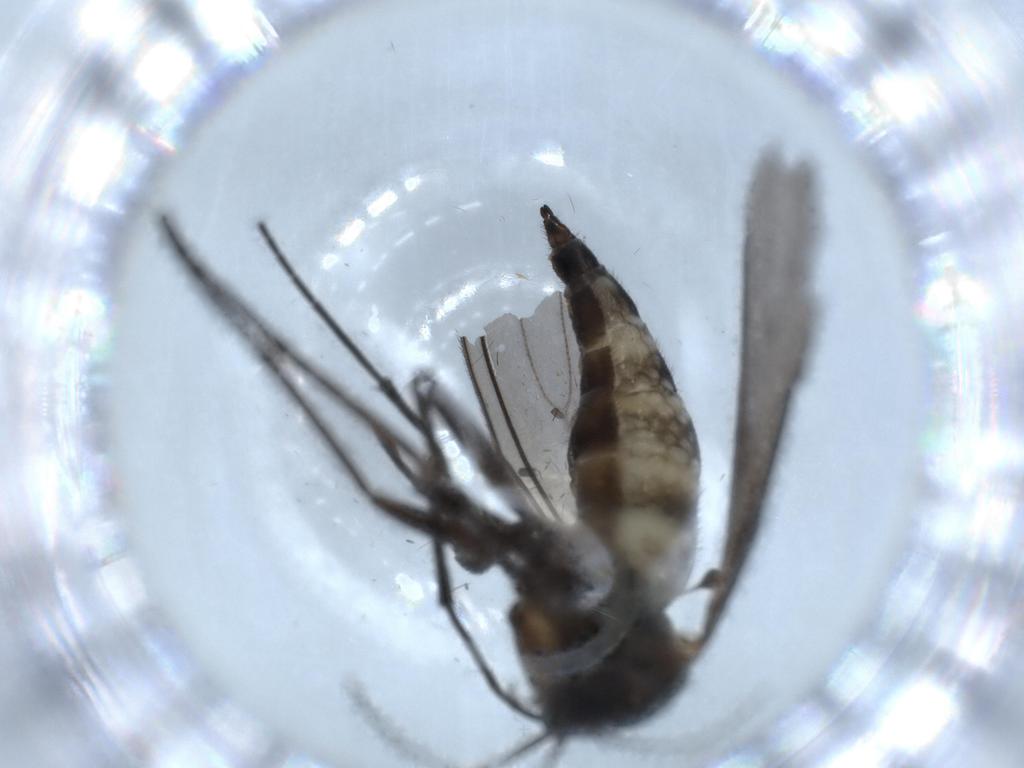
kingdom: Animalia
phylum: Arthropoda
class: Insecta
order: Diptera
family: Sciaridae
